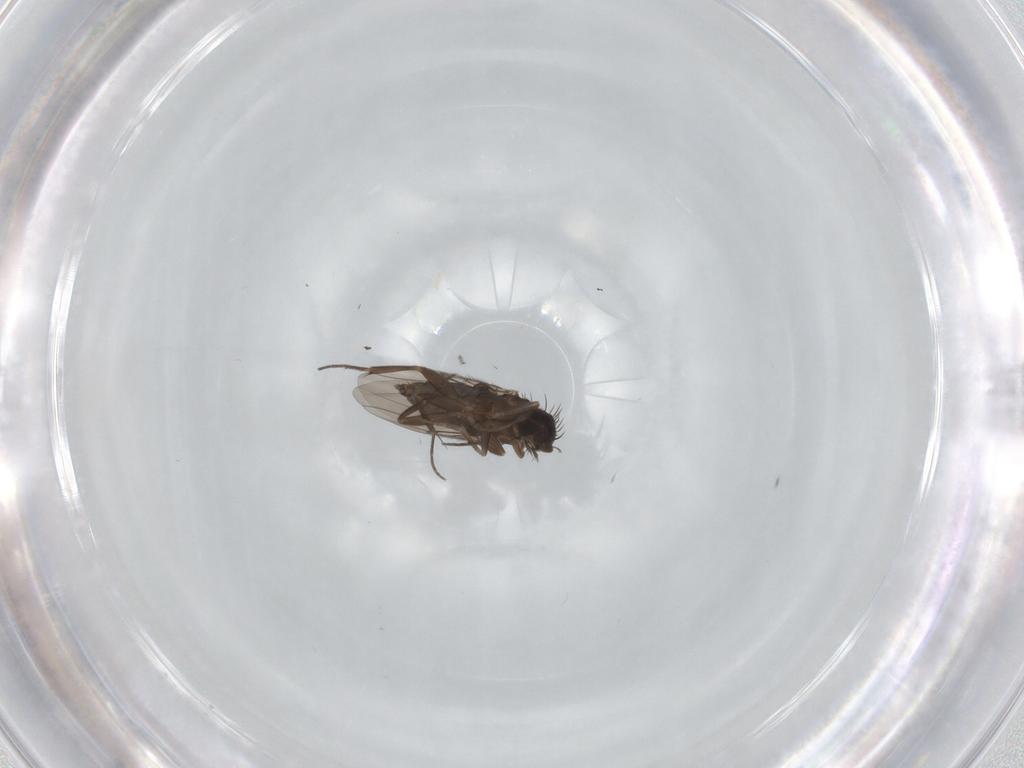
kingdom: Animalia
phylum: Arthropoda
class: Insecta
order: Diptera
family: Phoridae
